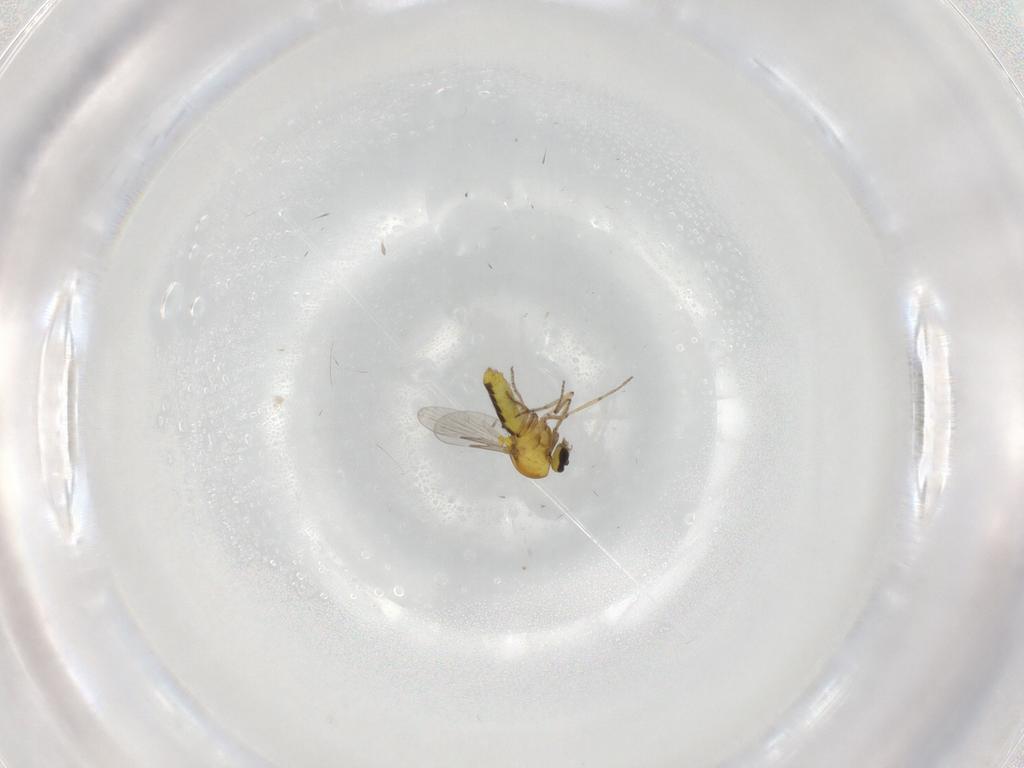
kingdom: Animalia
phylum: Arthropoda
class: Insecta
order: Diptera
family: Ceratopogonidae
